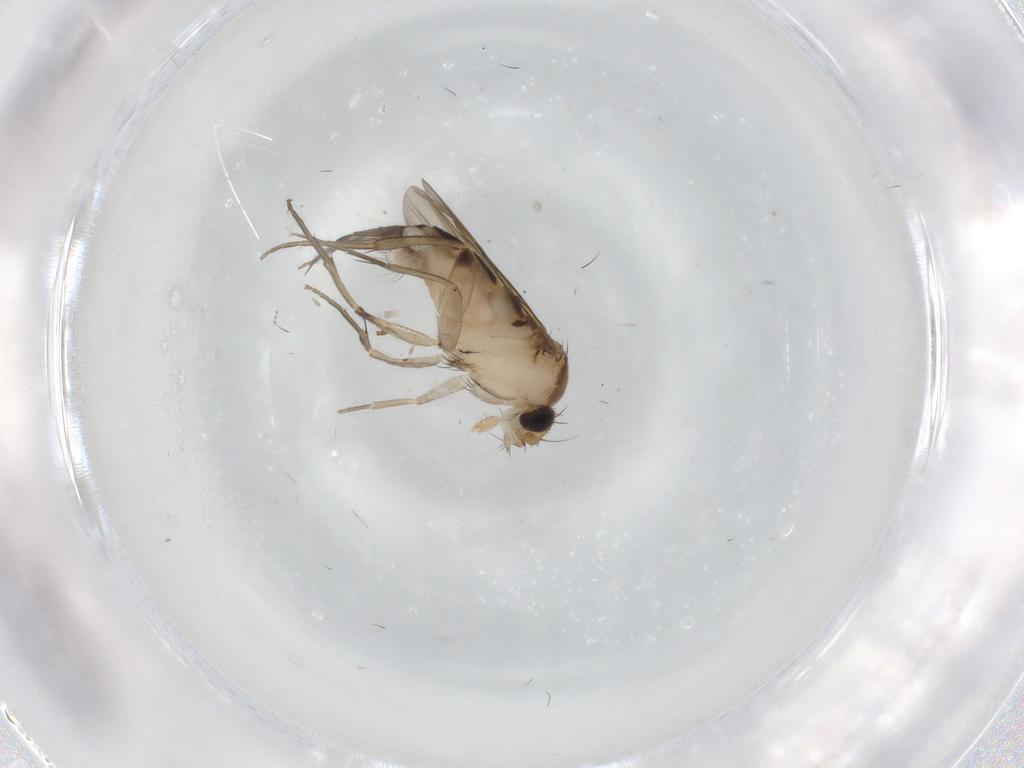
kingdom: Animalia
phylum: Arthropoda
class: Insecta
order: Diptera
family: Phoridae
